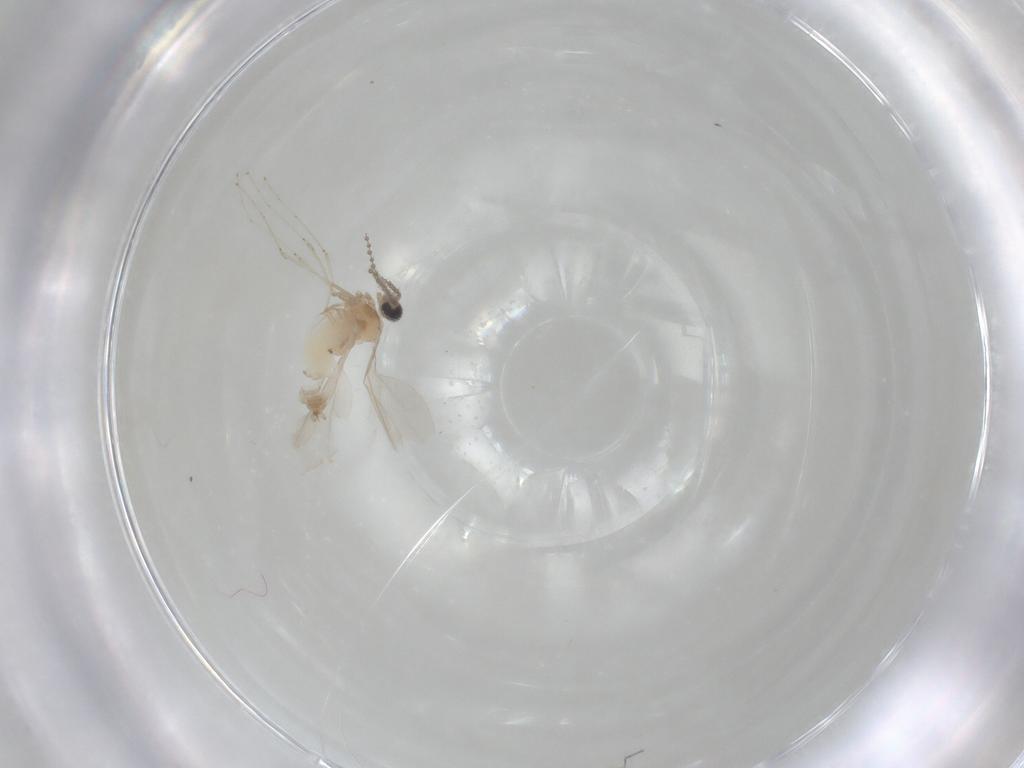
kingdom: Animalia
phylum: Arthropoda
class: Insecta
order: Diptera
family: Cecidomyiidae
